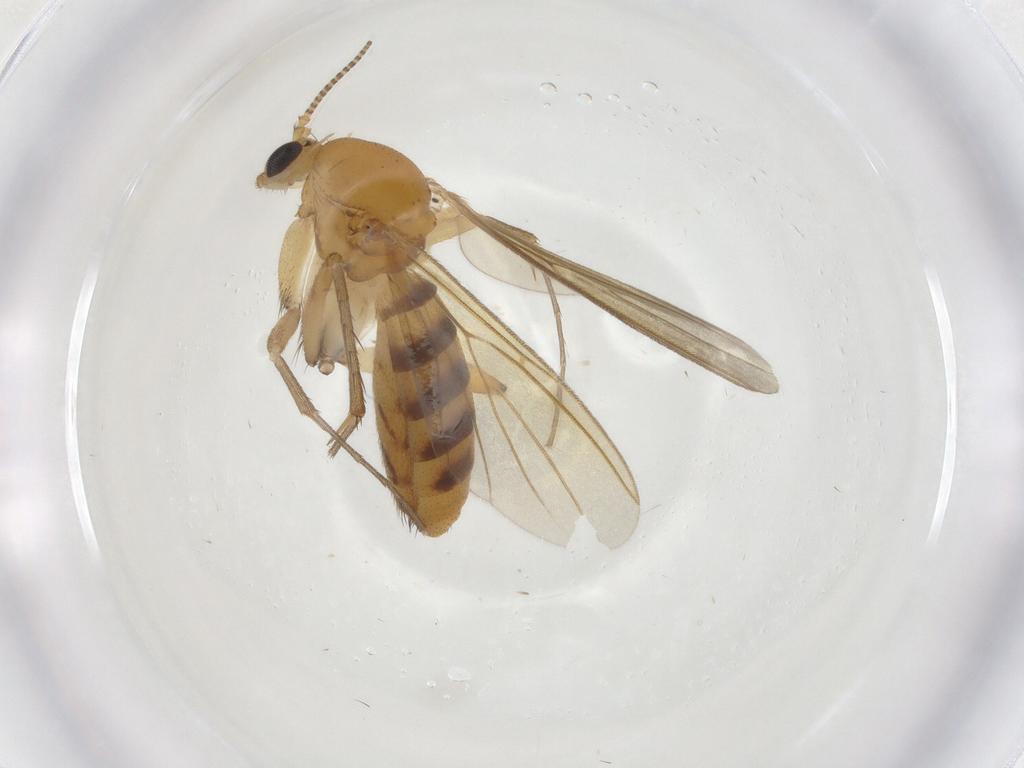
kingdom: Animalia
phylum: Arthropoda
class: Insecta
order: Diptera
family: Mycetophilidae
